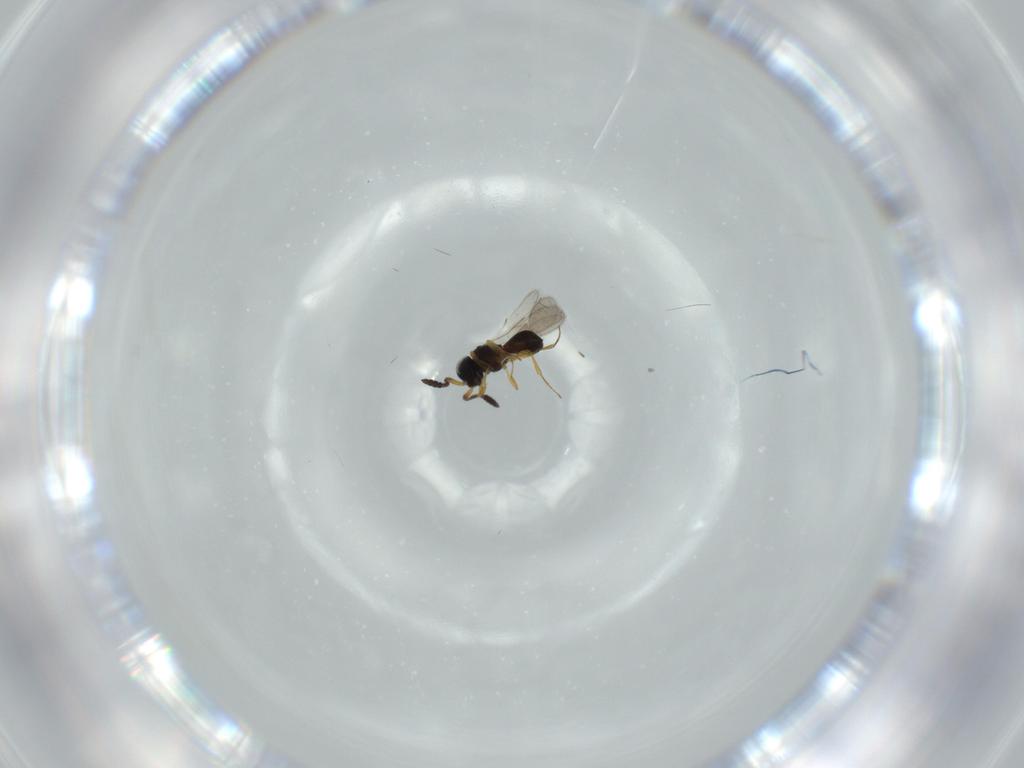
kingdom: Animalia
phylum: Arthropoda
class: Insecta
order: Hymenoptera
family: Scelionidae
